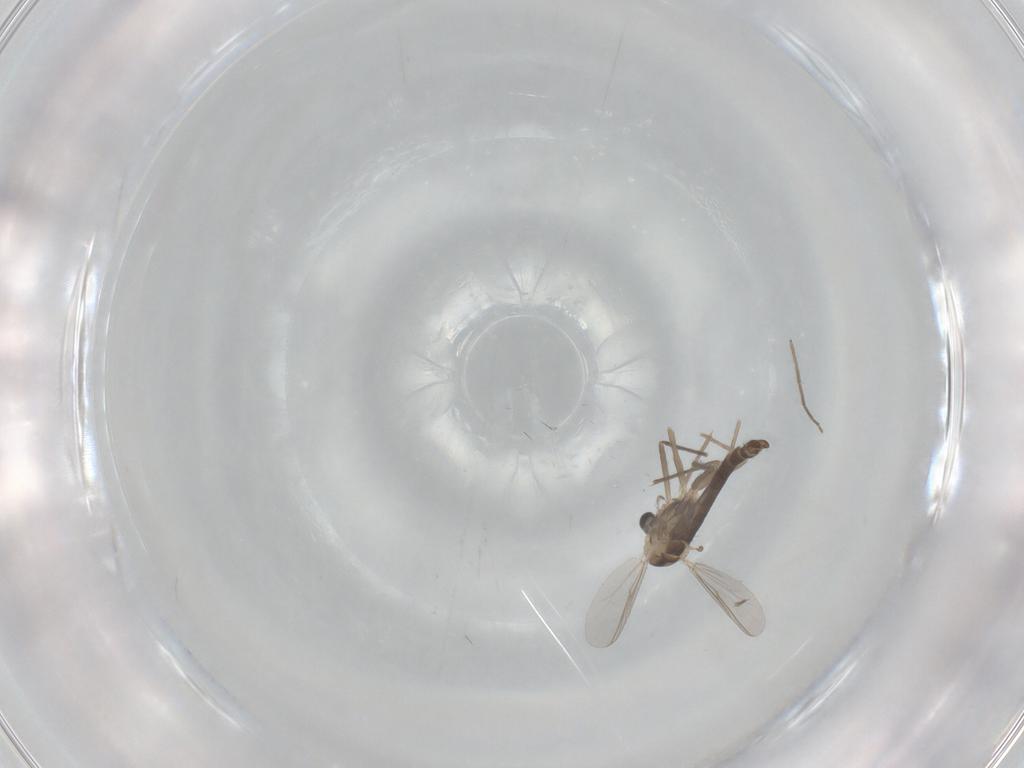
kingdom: Animalia
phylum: Arthropoda
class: Insecta
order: Diptera
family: Chironomidae
